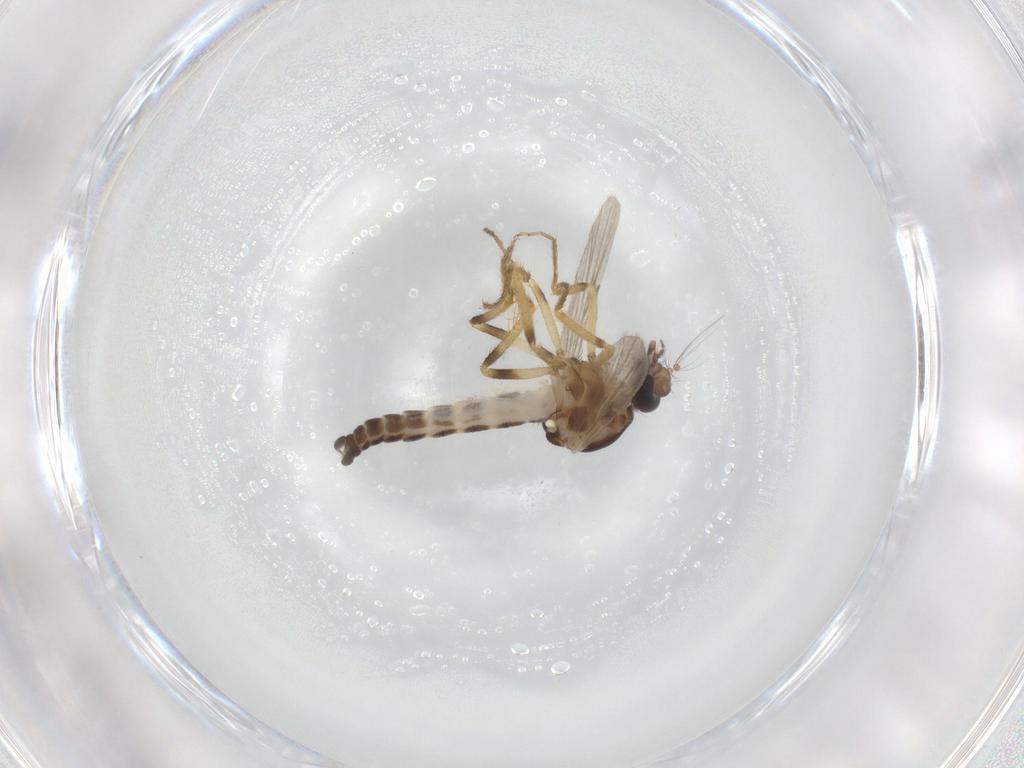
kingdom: Animalia
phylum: Arthropoda
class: Insecta
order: Diptera
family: Ceratopogonidae
